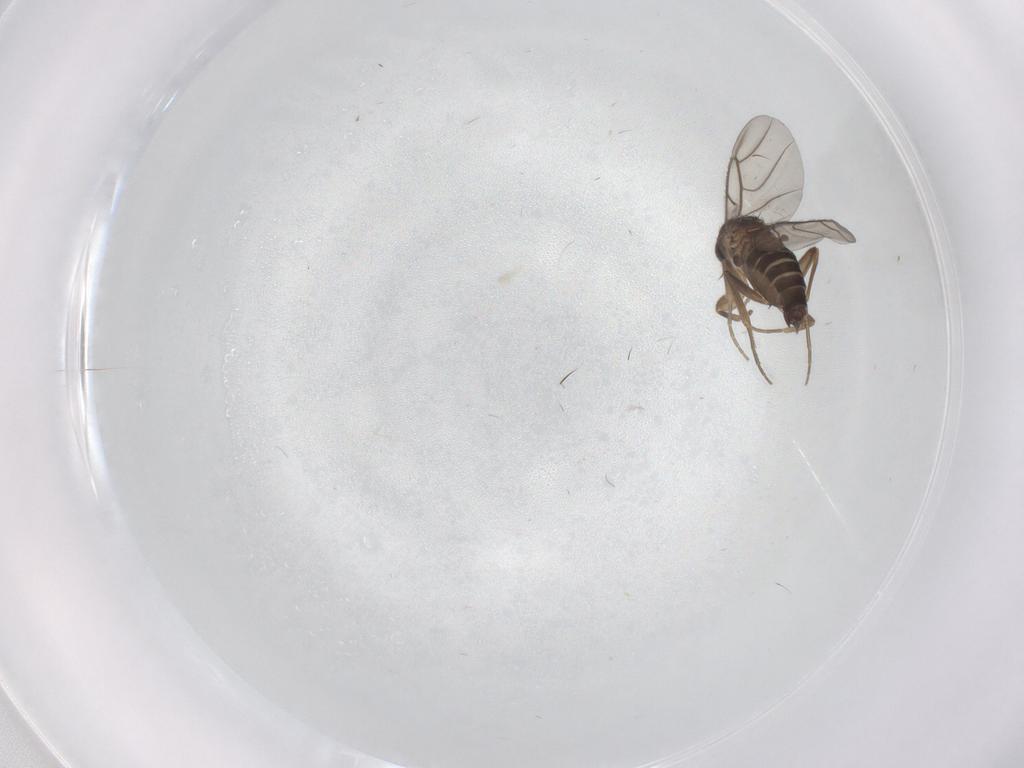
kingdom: Animalia
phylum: Arthropoda
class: Insecta
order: Diptera
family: Phoridae
